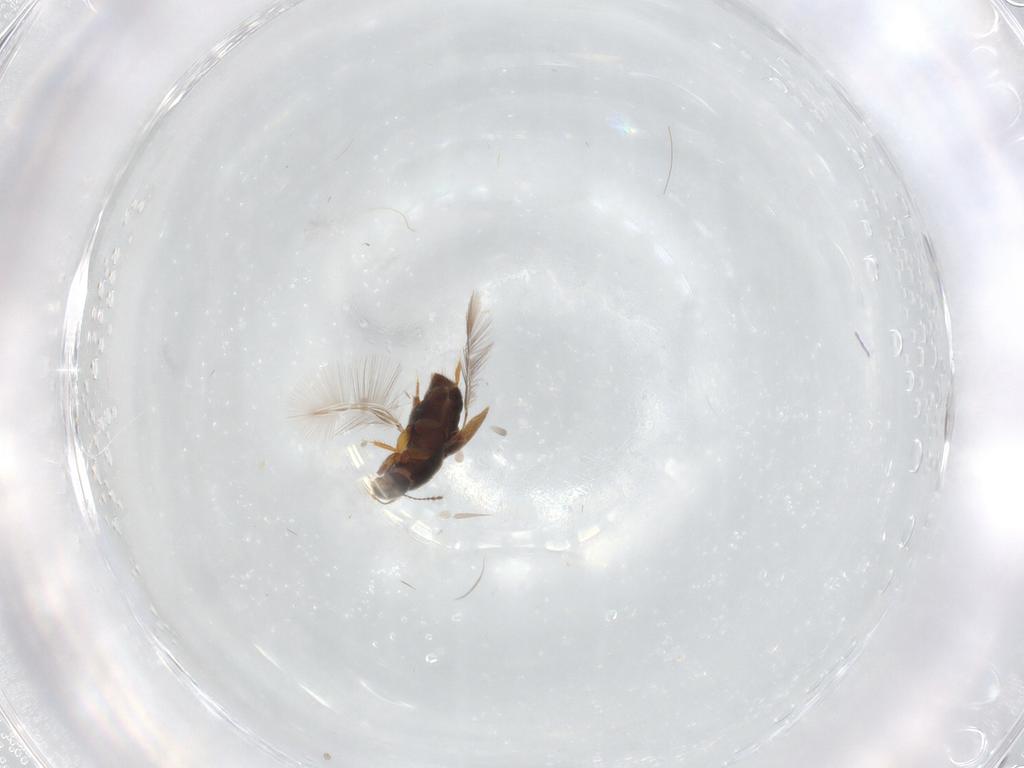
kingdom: Animalia
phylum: Arthropoda
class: Insecta
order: Coleoptera
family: Staphylinidae
